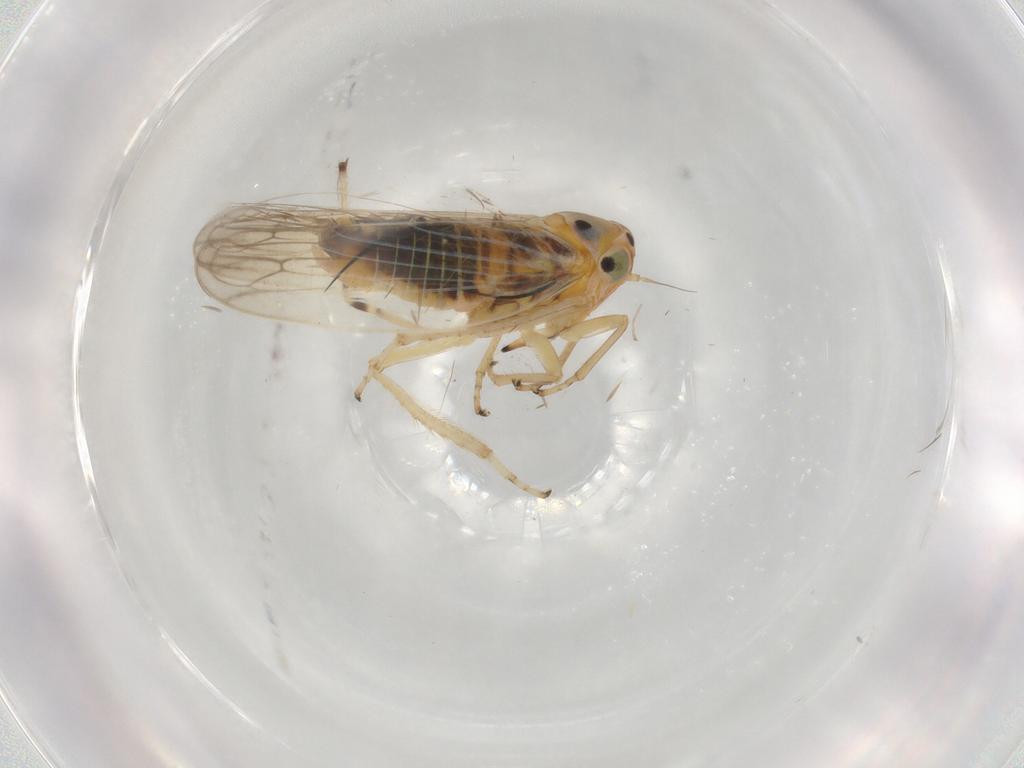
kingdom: Animalia
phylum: Arthropoda
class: Insecta
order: Hemiptera
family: Cicadellidae
